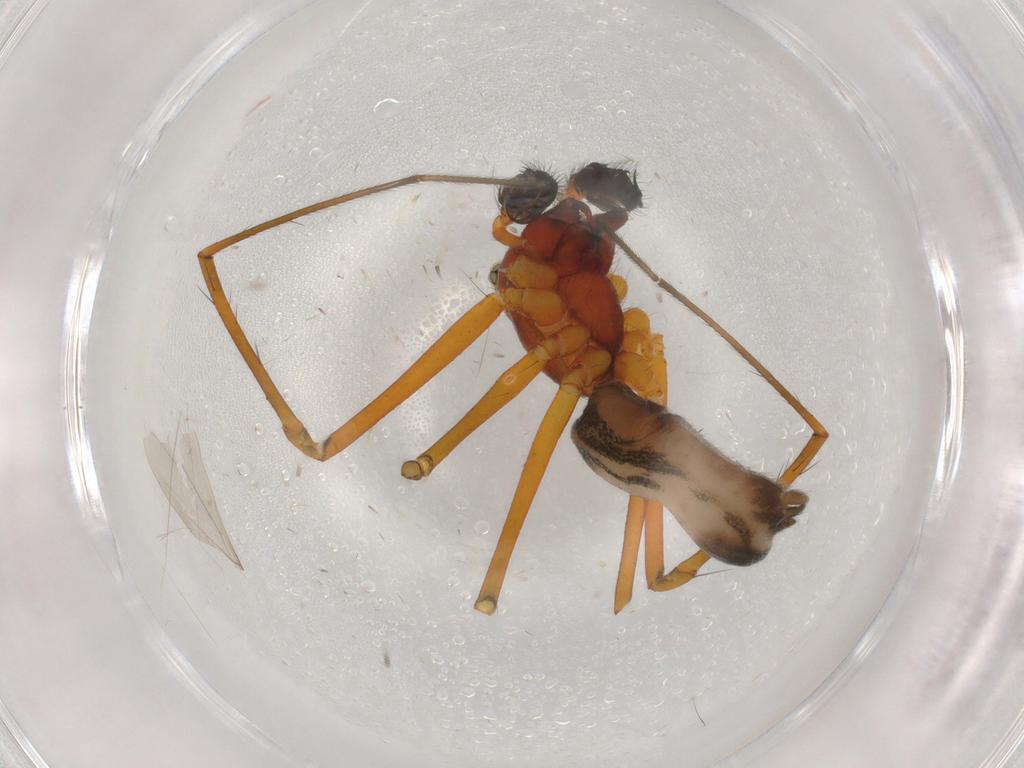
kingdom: Animalia
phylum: Arthropoda
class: Arachnida
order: Araneae
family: Linyphiidae
